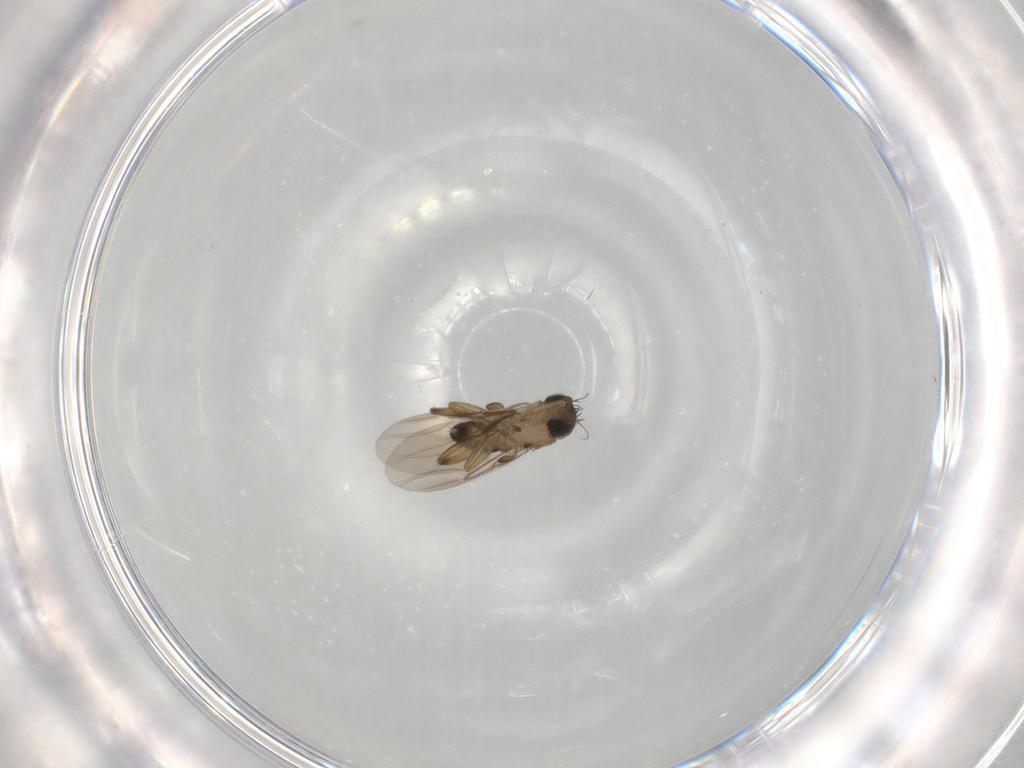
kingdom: Animalia
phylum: Arthropoda
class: Insecta
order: Diptera
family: Phoridae
